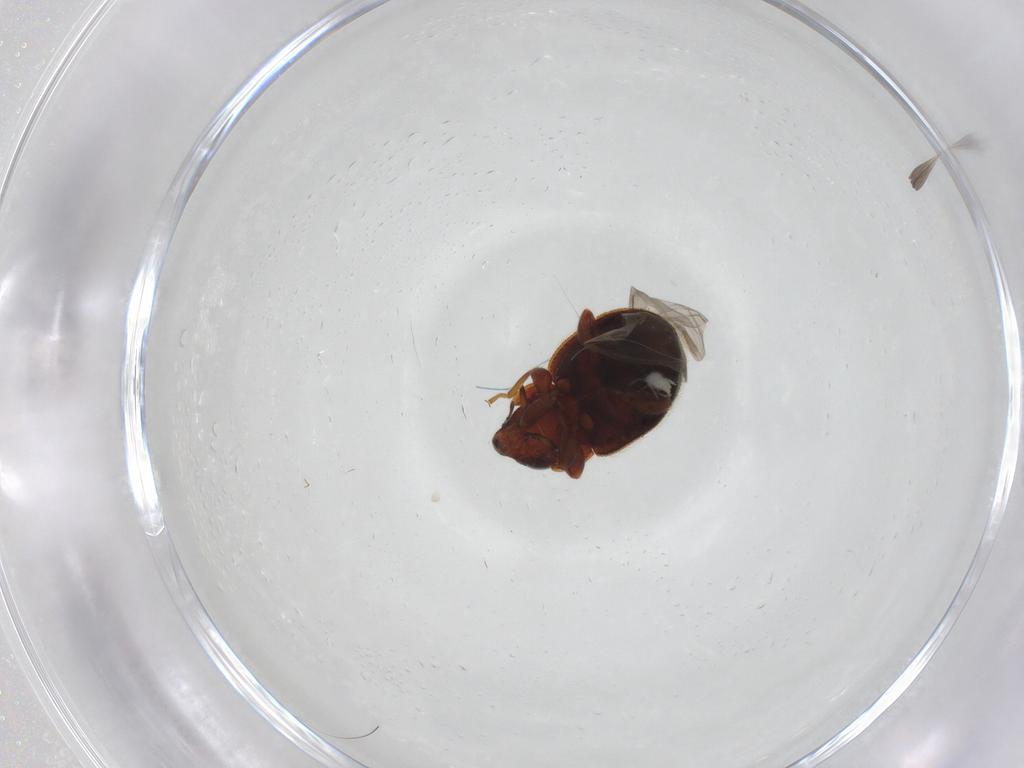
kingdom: Animalia
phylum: Arthropoda
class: Insecta
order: Coleoptera
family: Coccinellidae
